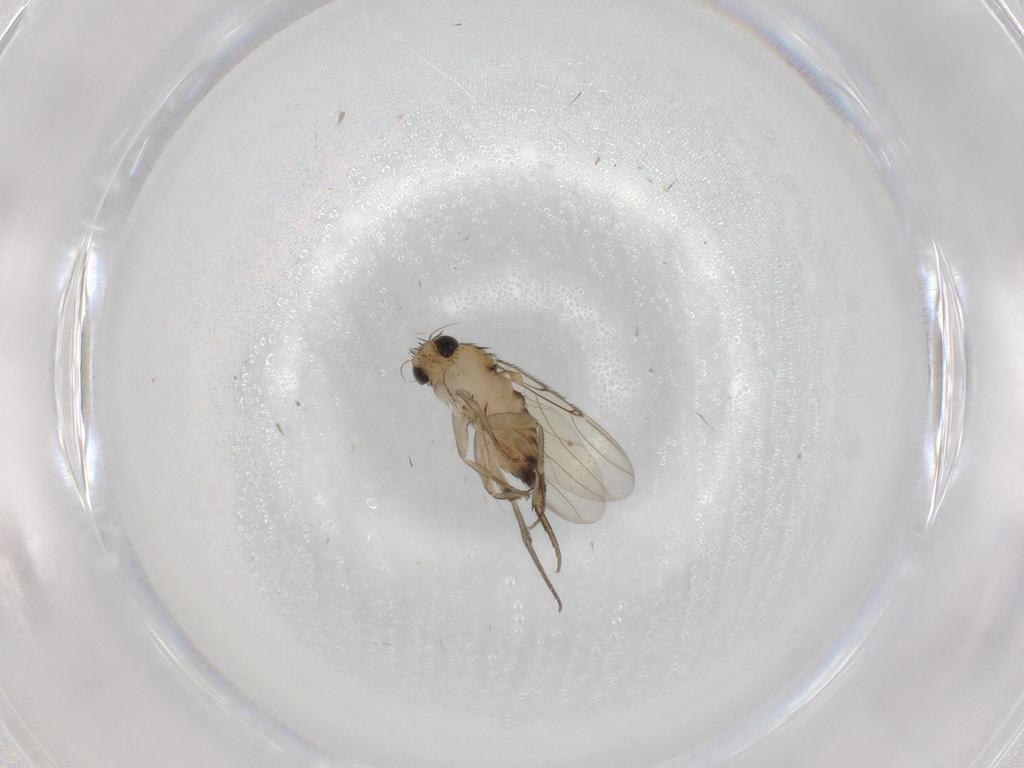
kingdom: Animalia
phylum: Arthropoda
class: Insecta
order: Diptera
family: Phoridae
